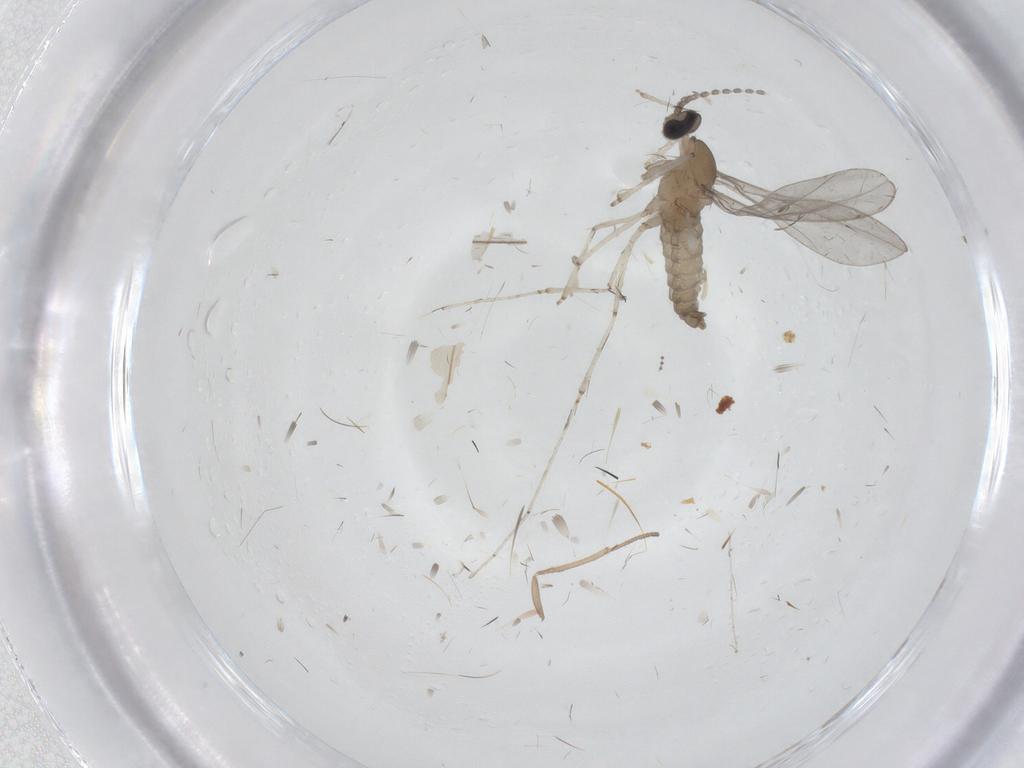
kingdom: Animalia
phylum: Arthropoda
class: Insecta
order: Diptera
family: Cecidomyiidae
